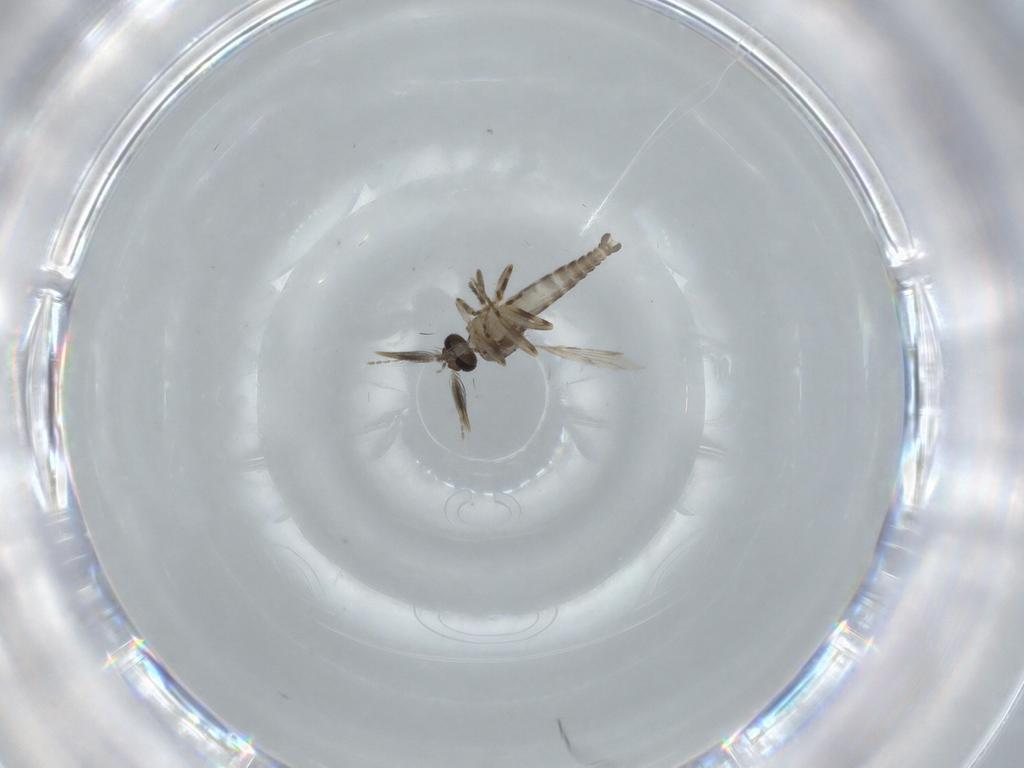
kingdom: Animalia
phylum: Arthropoda
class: Insecta
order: Diptera
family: Ceratopogonidae
